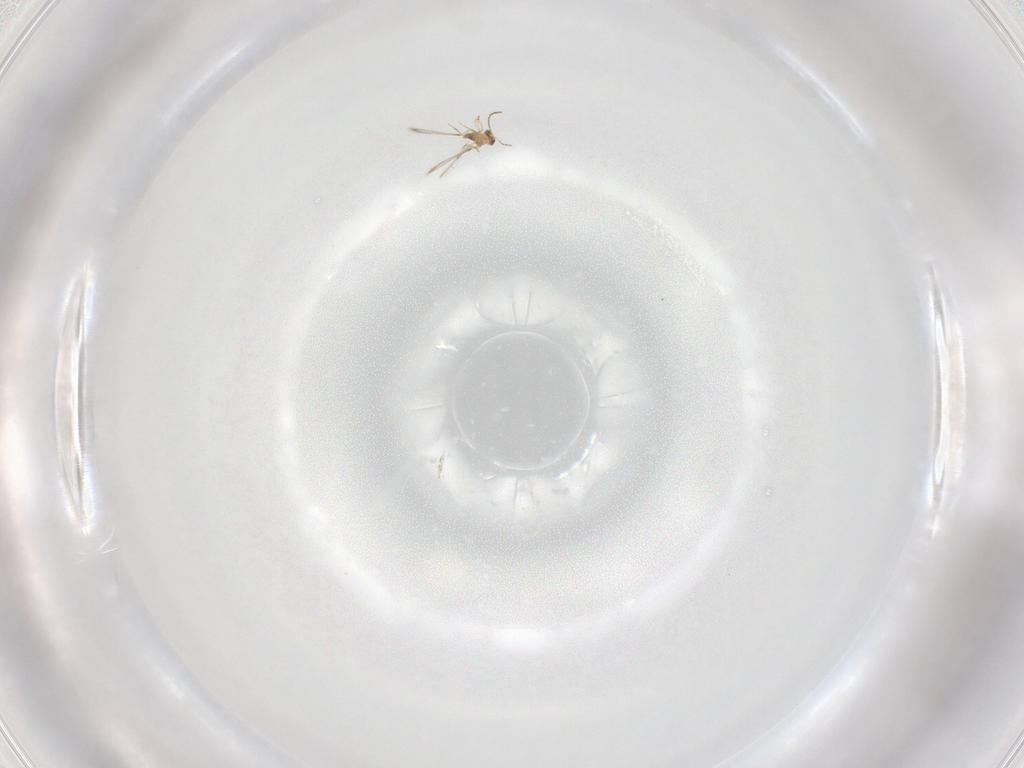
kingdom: Animalia
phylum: Arthropoda
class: Insecta
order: Hymenoptera
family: Mymaridae
